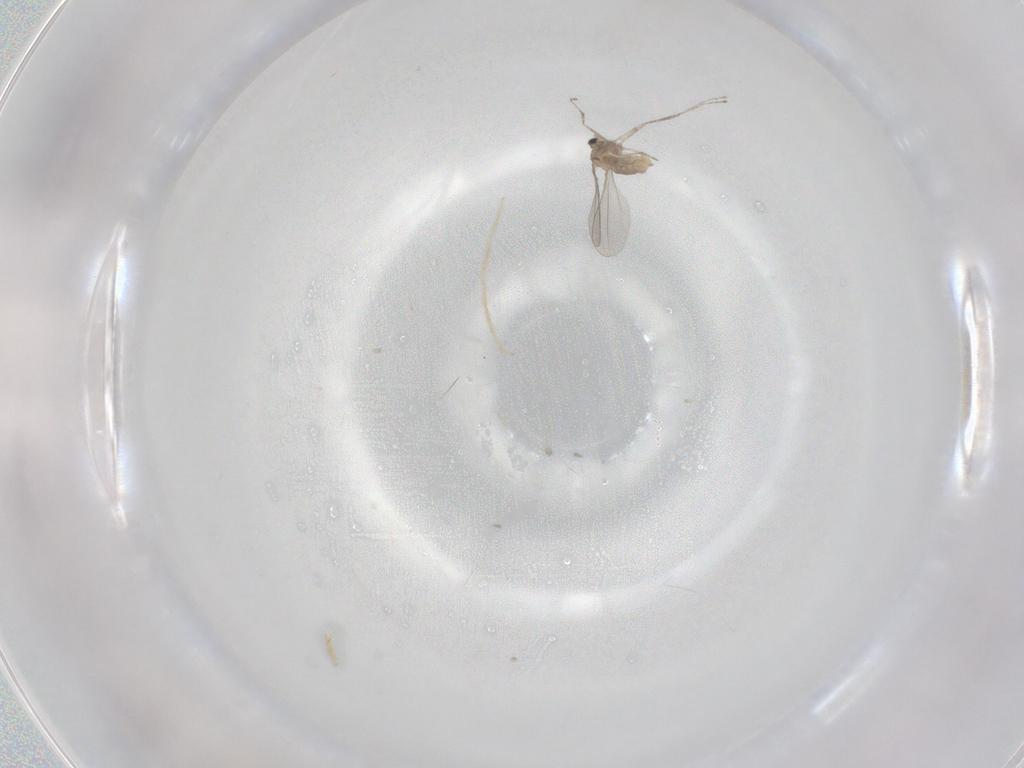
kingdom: Animalia
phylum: Arthropoda
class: Insecta
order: Diptera
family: Cecidomyiidae
